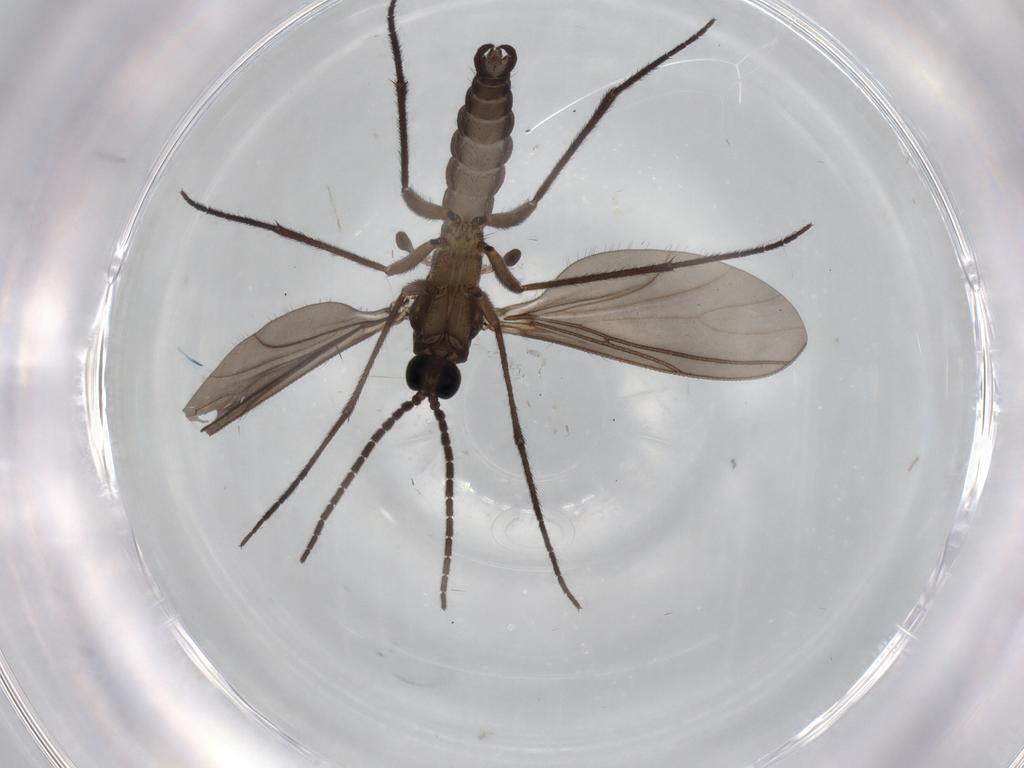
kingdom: Animalia
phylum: Arthropoda
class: Insecta
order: Diptera
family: Sciaridae
